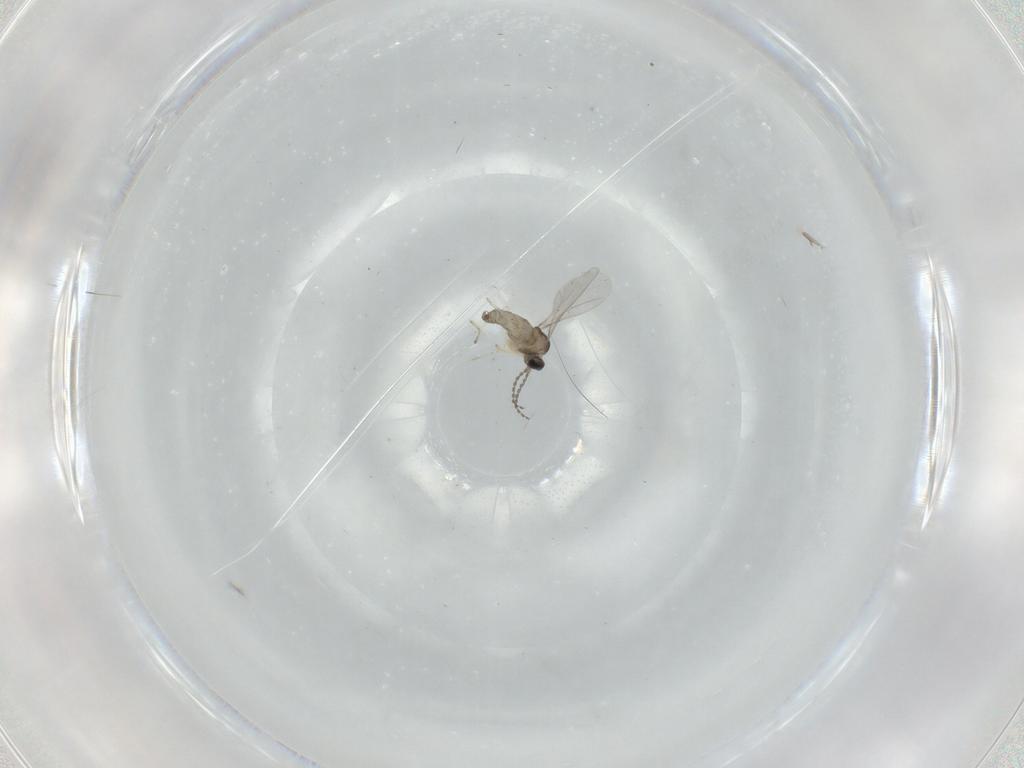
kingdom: Animalia
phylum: Arthropoda
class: Insecta
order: Diptera
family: Cecidomyiidae
